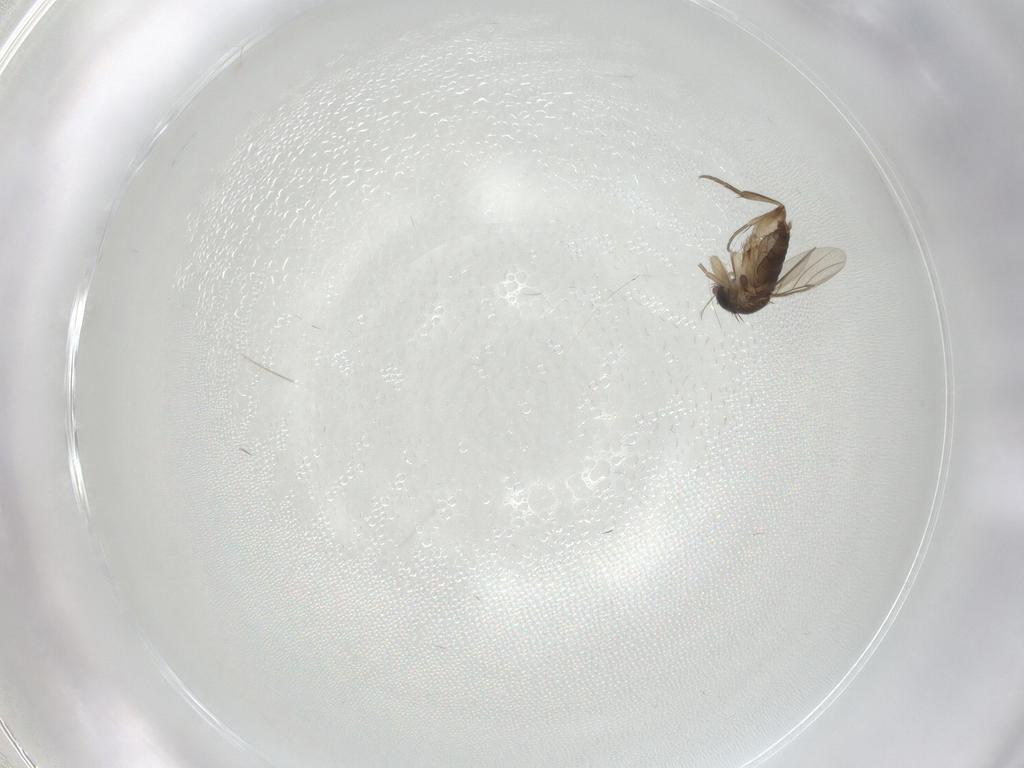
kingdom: Animalia
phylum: Arthropoda
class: Insecta
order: Diptera
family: Phoridae
